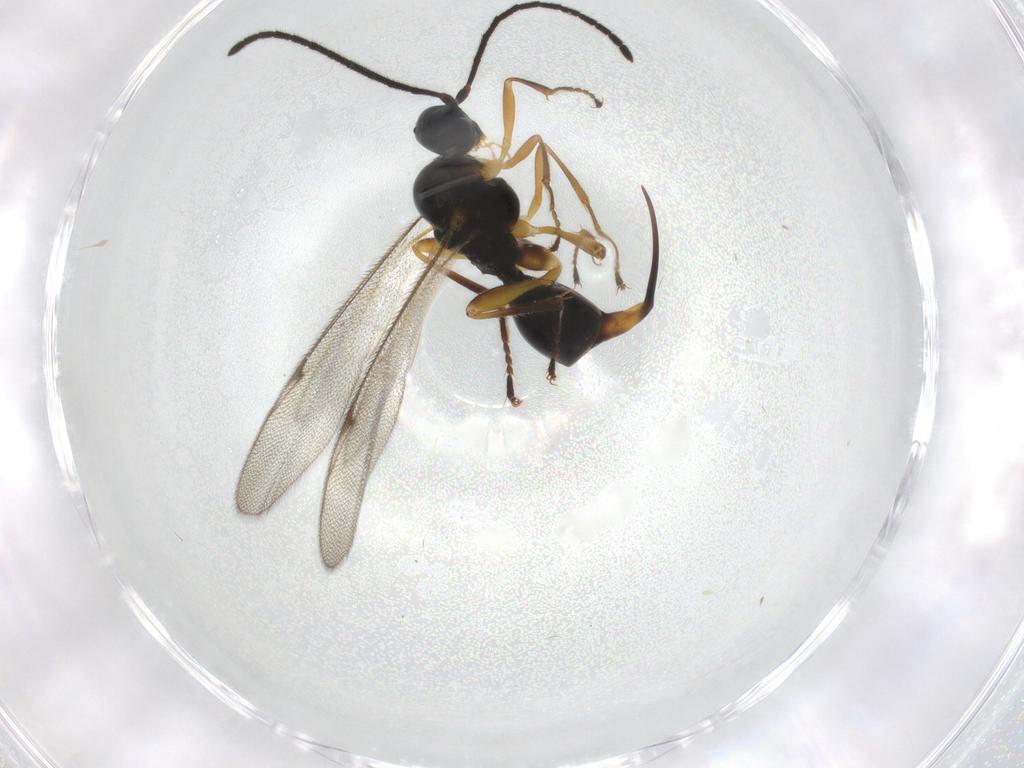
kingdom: Animalia
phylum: Arthropoda
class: Insecta
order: Hymenoptera
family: Proctotrupidae
